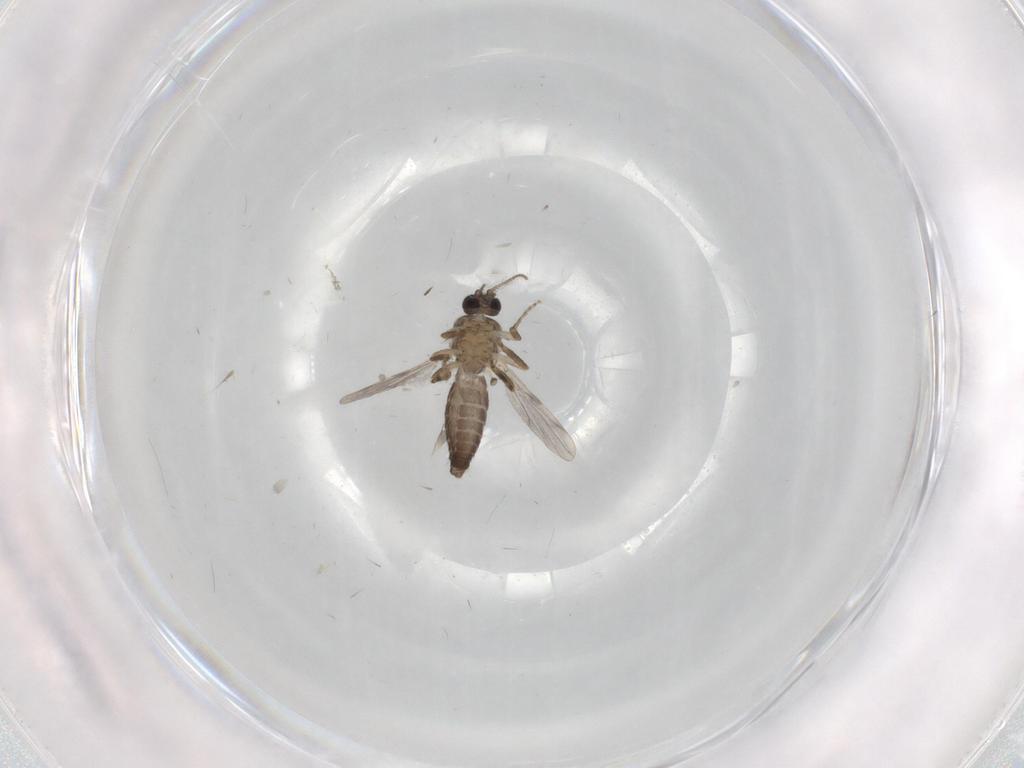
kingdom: Animalia
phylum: Arthropoda
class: Insecta
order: Diptera
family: Ceratopogonidae
